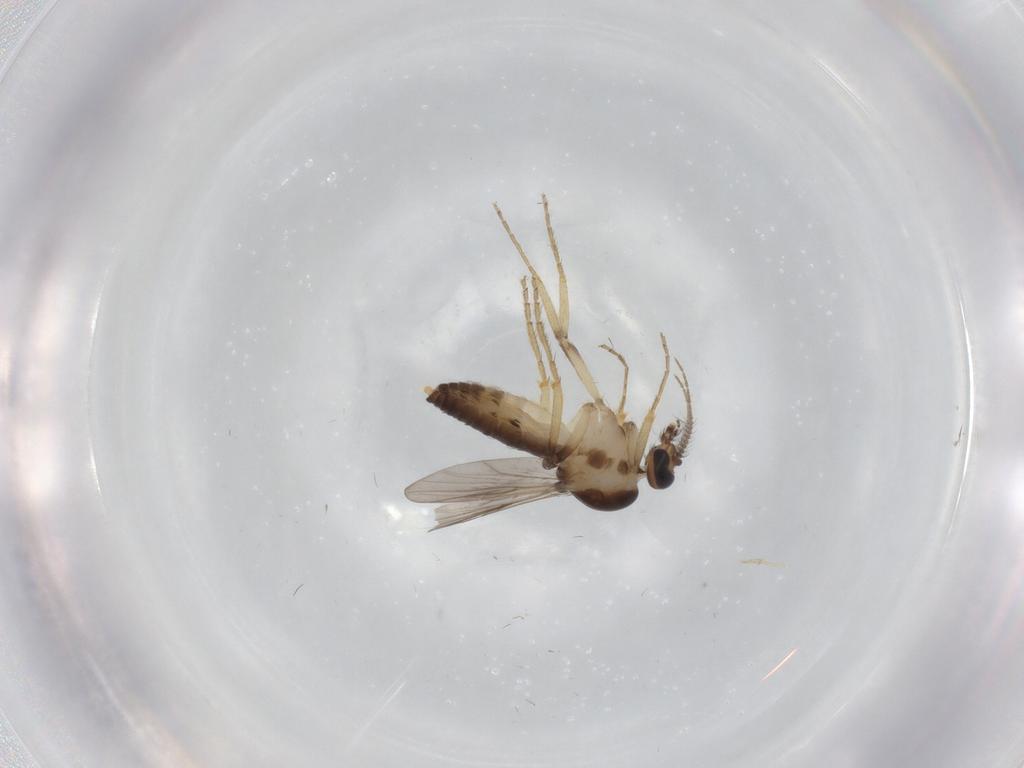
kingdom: Animalia
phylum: Arthropoda
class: Insecta
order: Diptera
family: Ceratopogonidae
